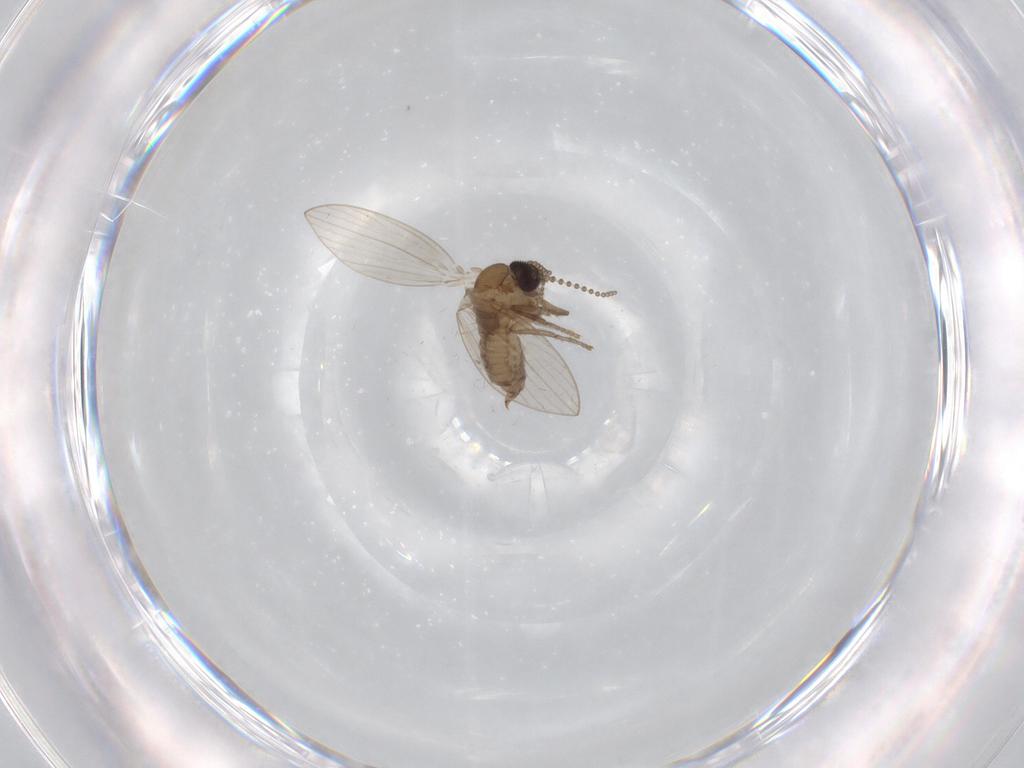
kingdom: Animalia
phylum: Arthropoda
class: Insecta
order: Diptera
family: Psychodidae
